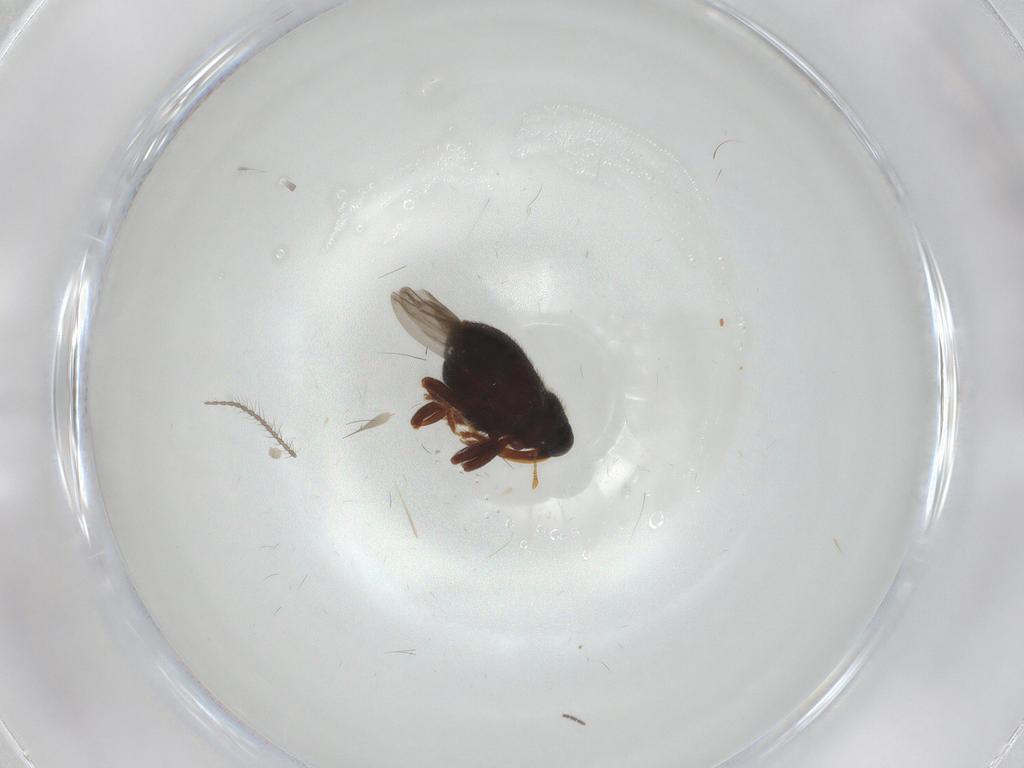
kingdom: Animalia
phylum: Arthropoda
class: Insecta
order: Coleoptera
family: Curculionidae
